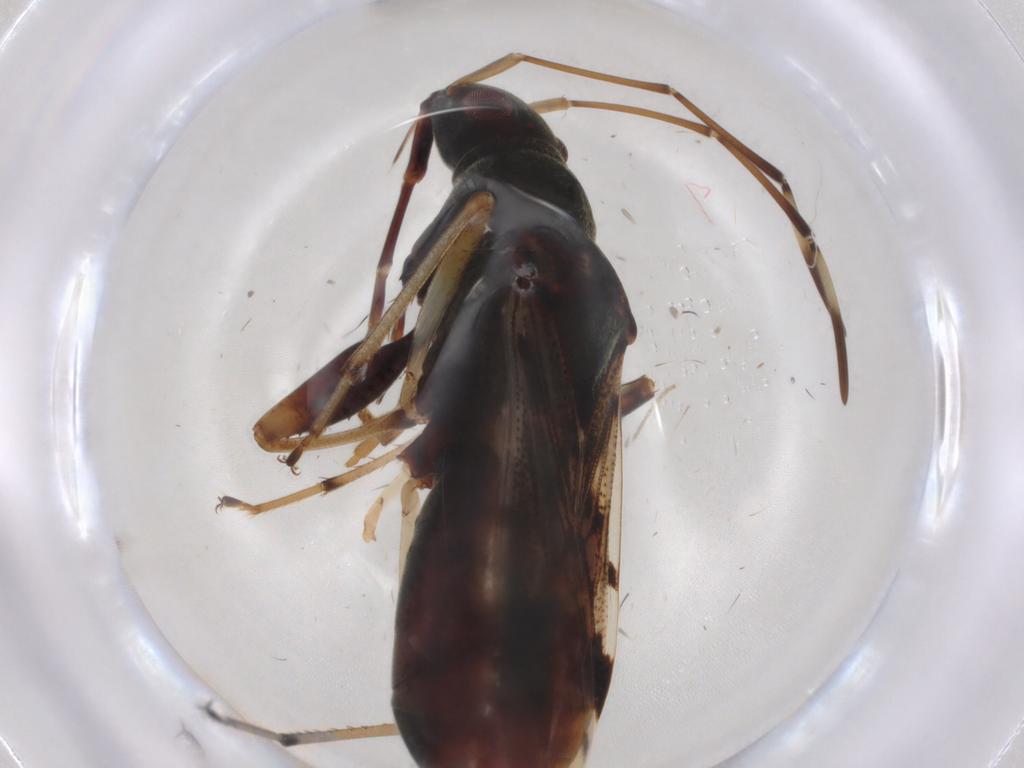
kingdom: Animalia
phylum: Arthropoda
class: Insecta
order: Hemiptera
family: Rhyparochromidae
